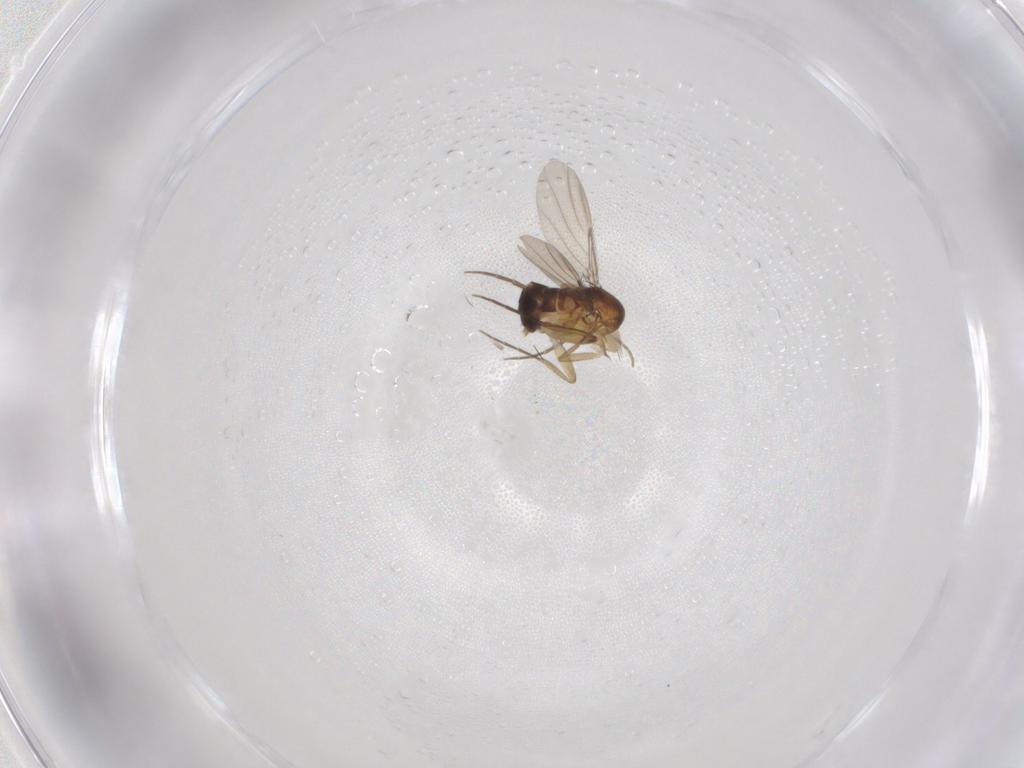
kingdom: Animalia
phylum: Arthropoda
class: Insecta
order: Diptera
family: Phoridae
